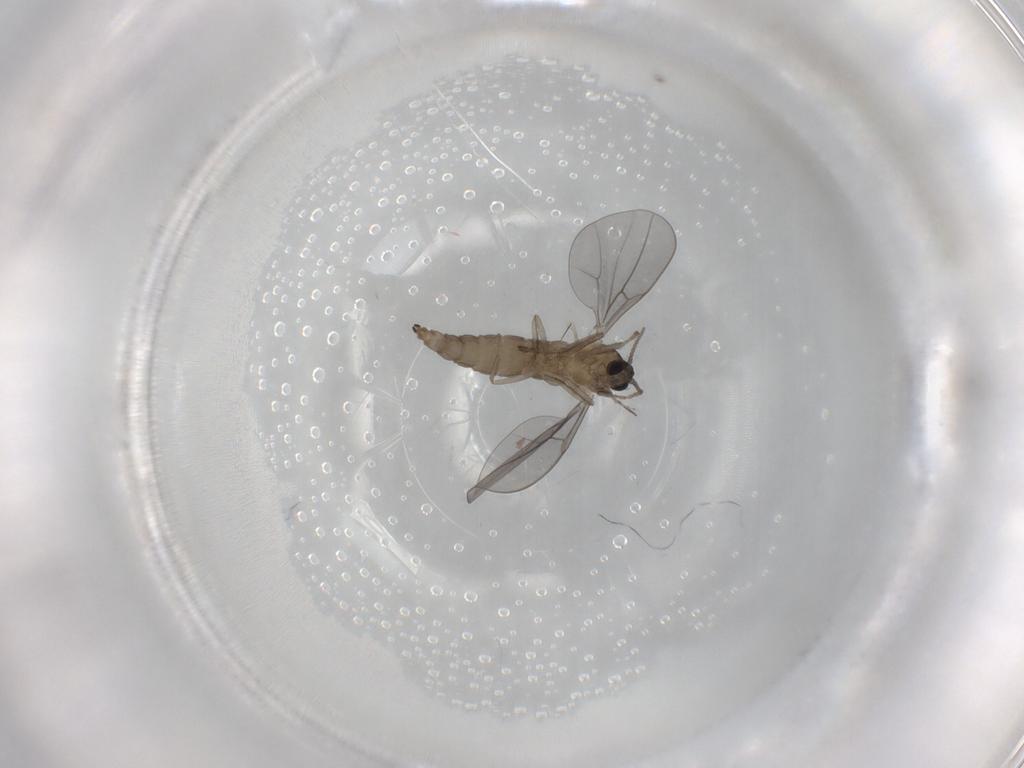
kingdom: Animalia
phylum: Arthropoda
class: Insecta
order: Diptera
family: Cecidomyiidae
